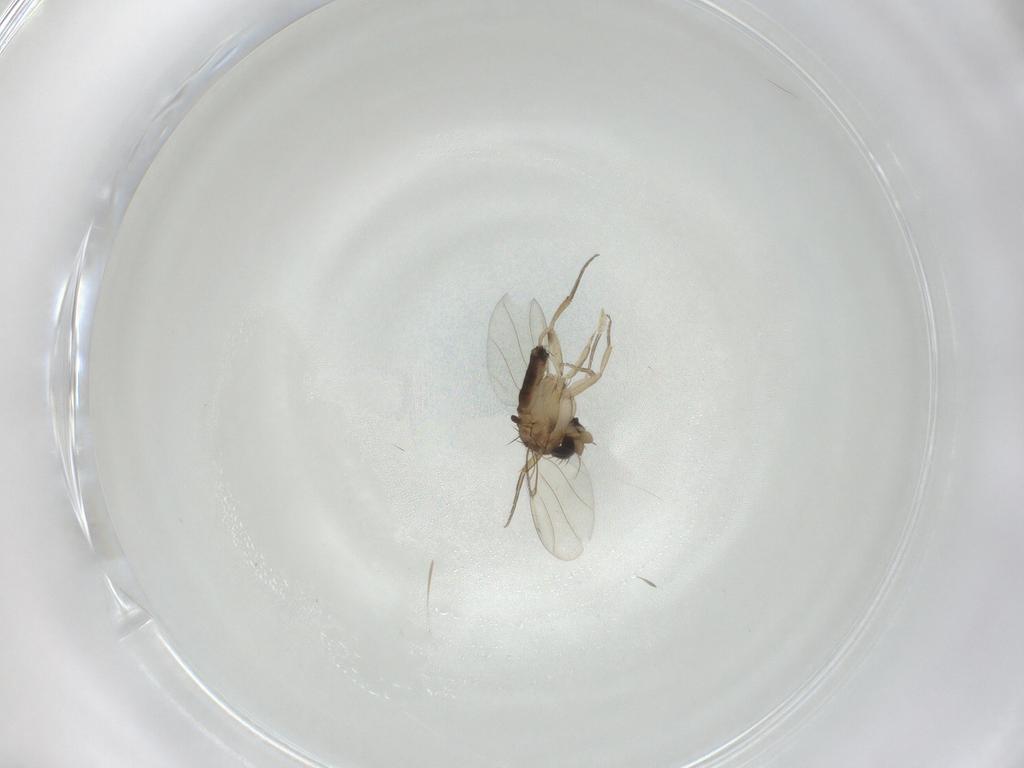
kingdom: Animalia
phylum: Arthropoda
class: Insecta
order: Diptera
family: Phoridae
